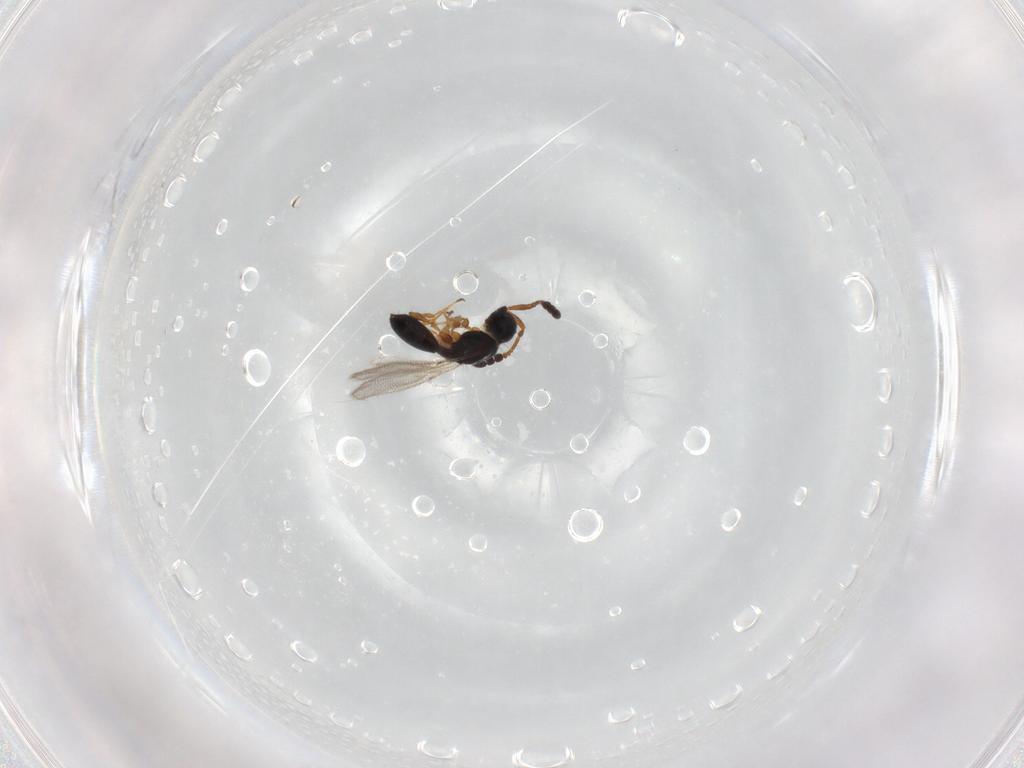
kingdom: Animalia
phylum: Arthropoda
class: Insecta
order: Hymenoptera
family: Diapriidae
